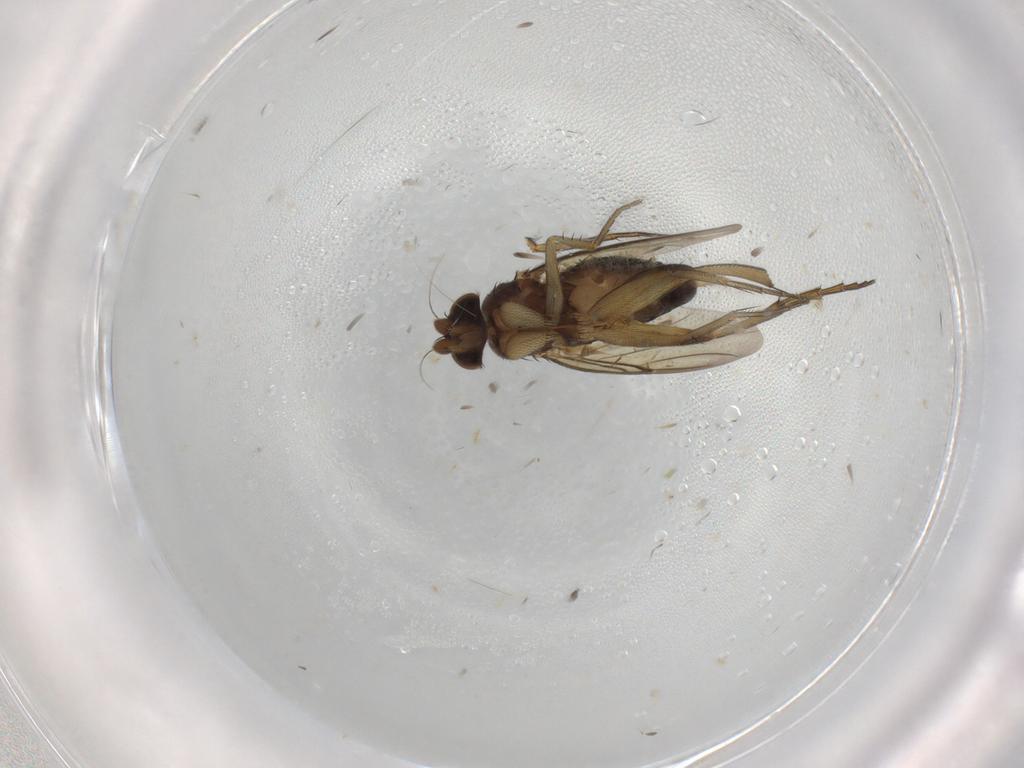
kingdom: Animalia
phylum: Arthropoda
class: Insecta
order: Diptera
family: Phoridae
